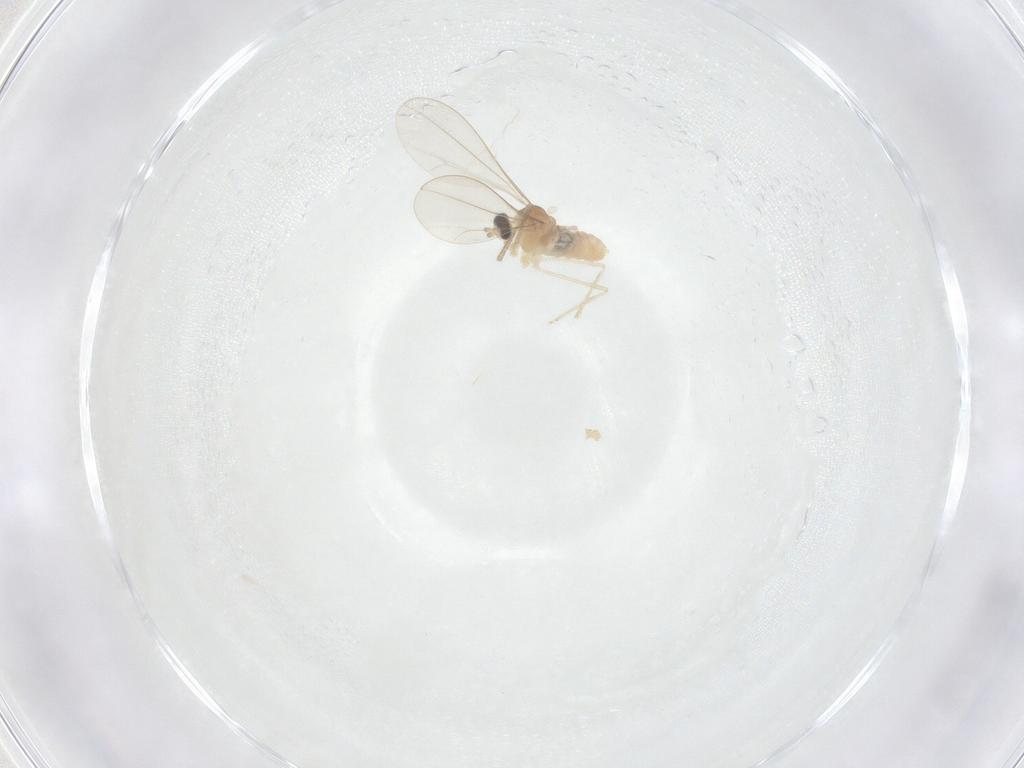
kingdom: Animalia
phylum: Arthropoda
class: Insecta
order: Diptera
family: Cecidomyiidae
